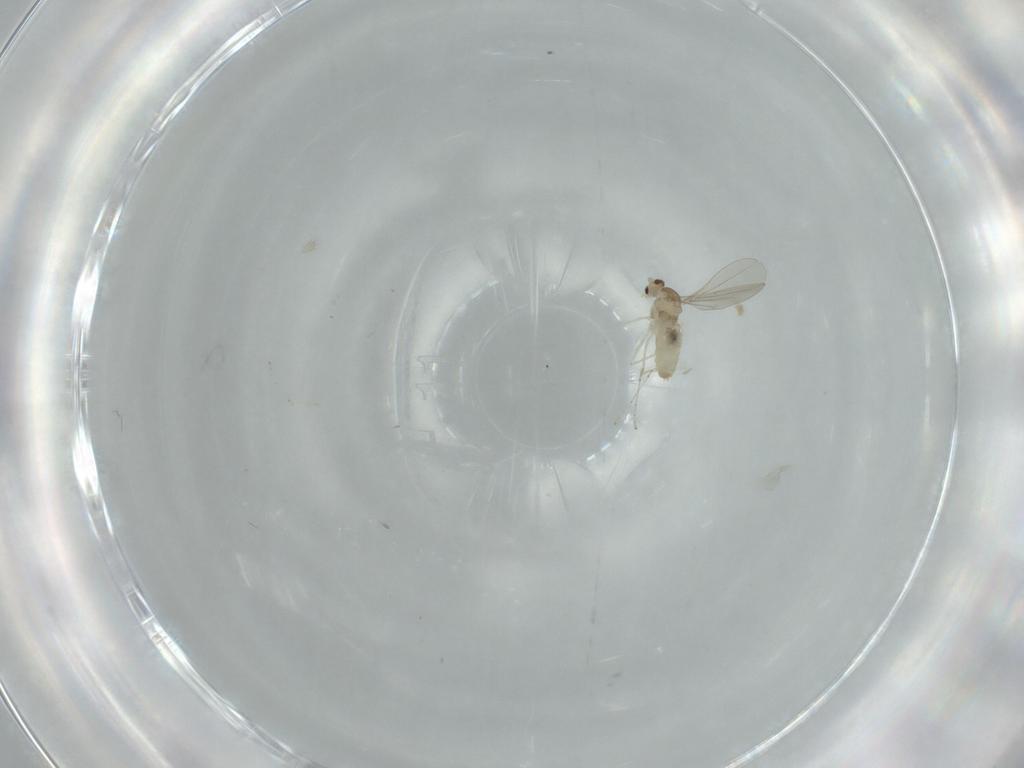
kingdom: Animalia
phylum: Arthropoda
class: Insecta
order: Diptera
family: Cecidomyiidae
